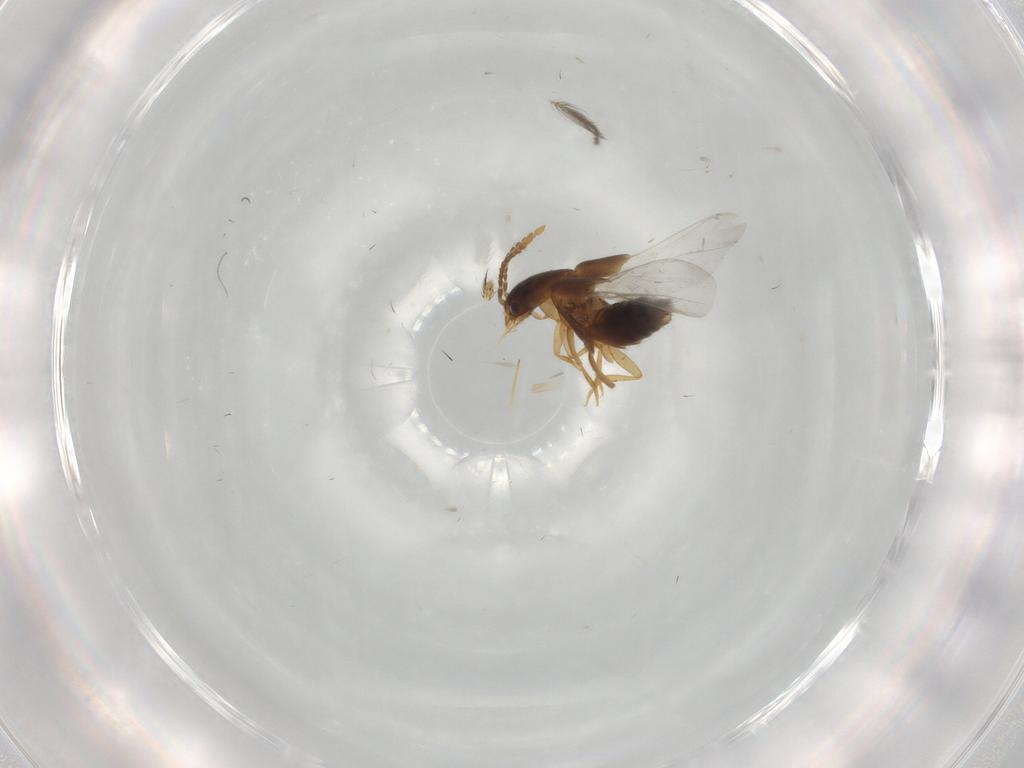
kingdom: Animalia
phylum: Arthropoda
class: Insecta
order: Coleoptera
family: Staphylinidae
